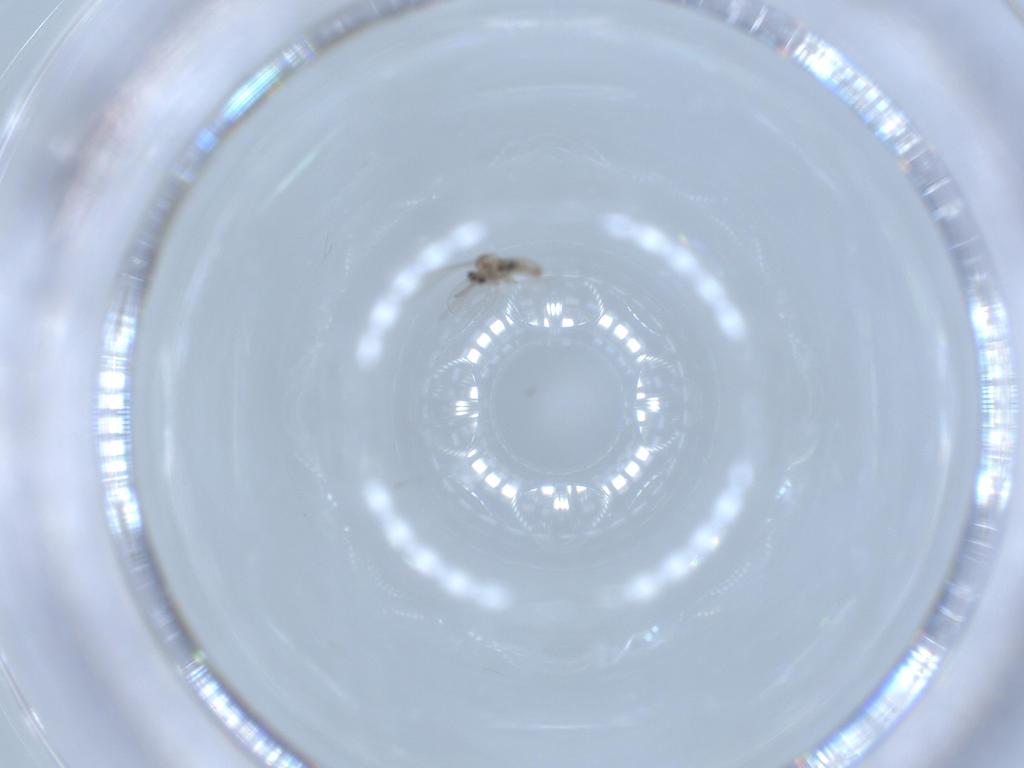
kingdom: Animalia
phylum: Arthropoda
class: Insecta
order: Diptera
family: Cecidomyiidae
